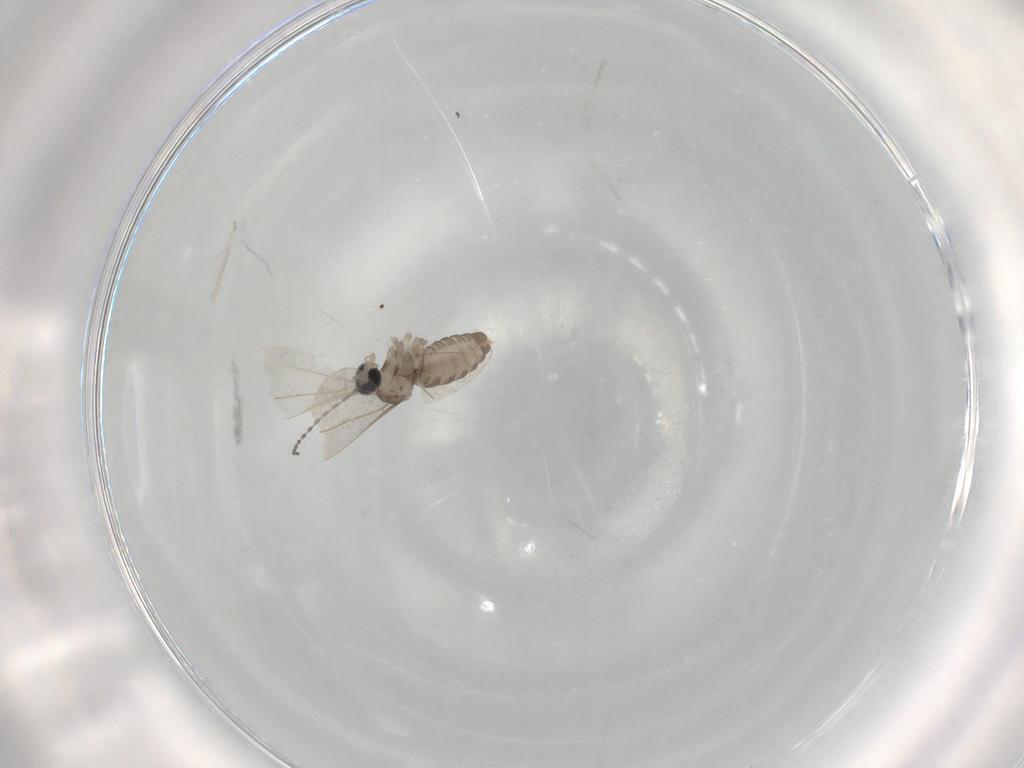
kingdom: Animalia
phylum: Arthropoda
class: Insecta
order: Diptera
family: Cecidomyiidae
